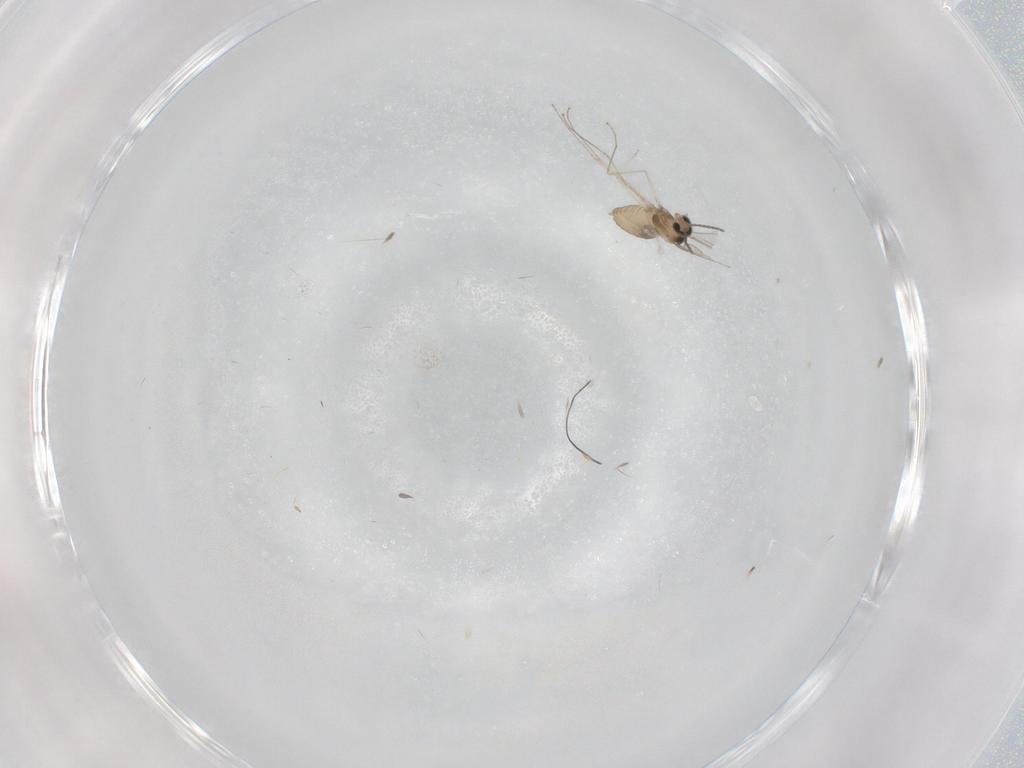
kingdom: Animalia
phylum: Arthropoda
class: Insecta
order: Diptera
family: Cecidomyiidae
